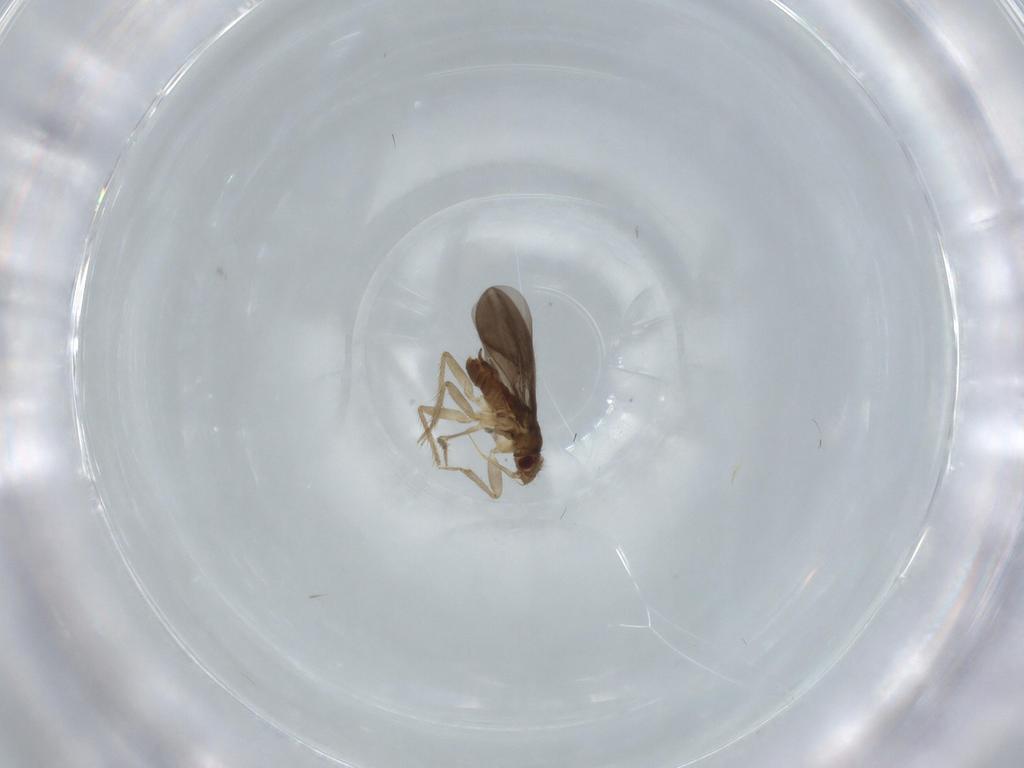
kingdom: Animalia
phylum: Arthropoda
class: Insecta
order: Hemiptera
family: Ceratocombidae
